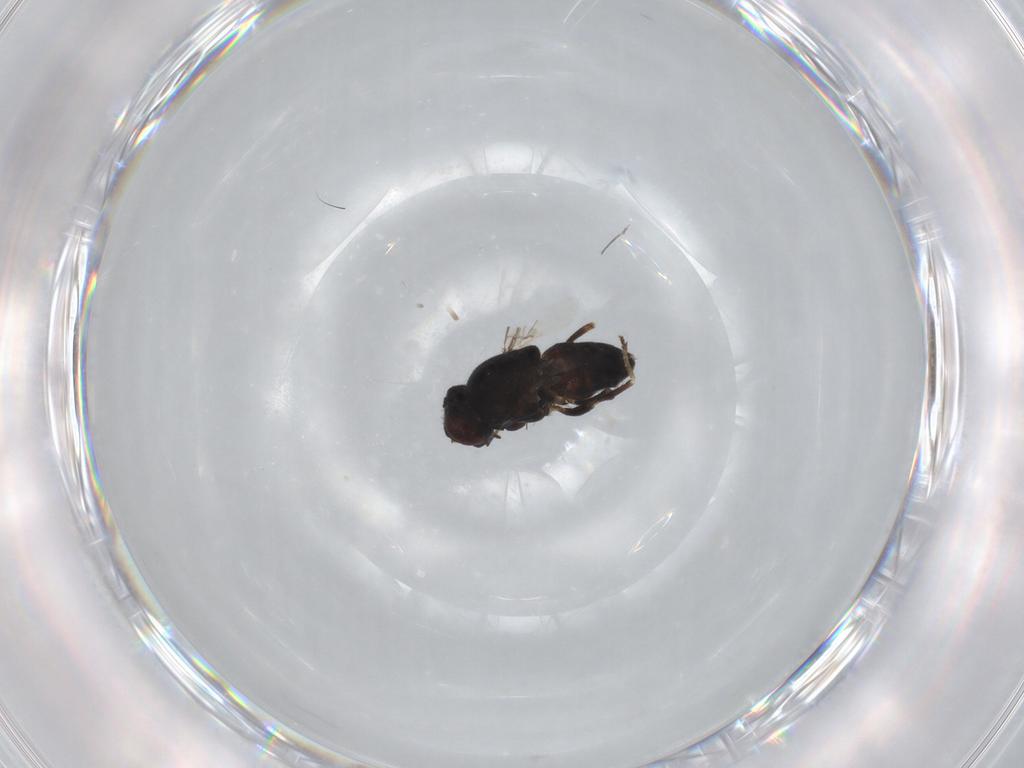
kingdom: Animalia
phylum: Arthropoda
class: Insecta
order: Diptera
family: Chloropidae
